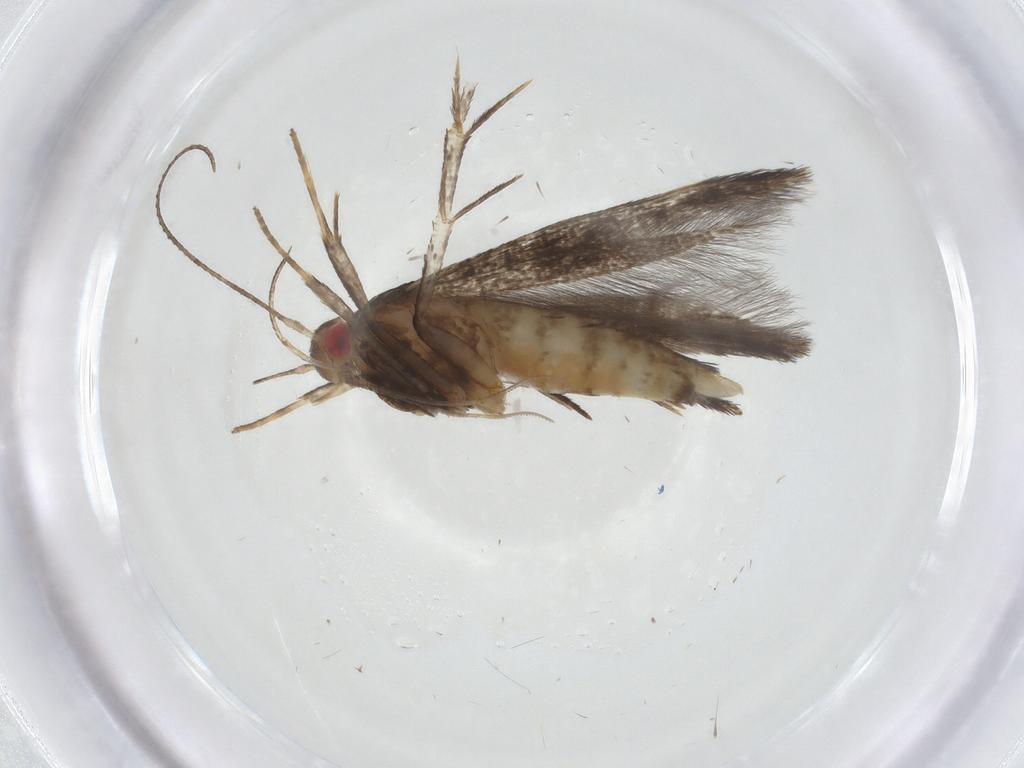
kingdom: Animalia
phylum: Arthropoda
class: Insecta
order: Lepidoptera
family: Gelechiidae
